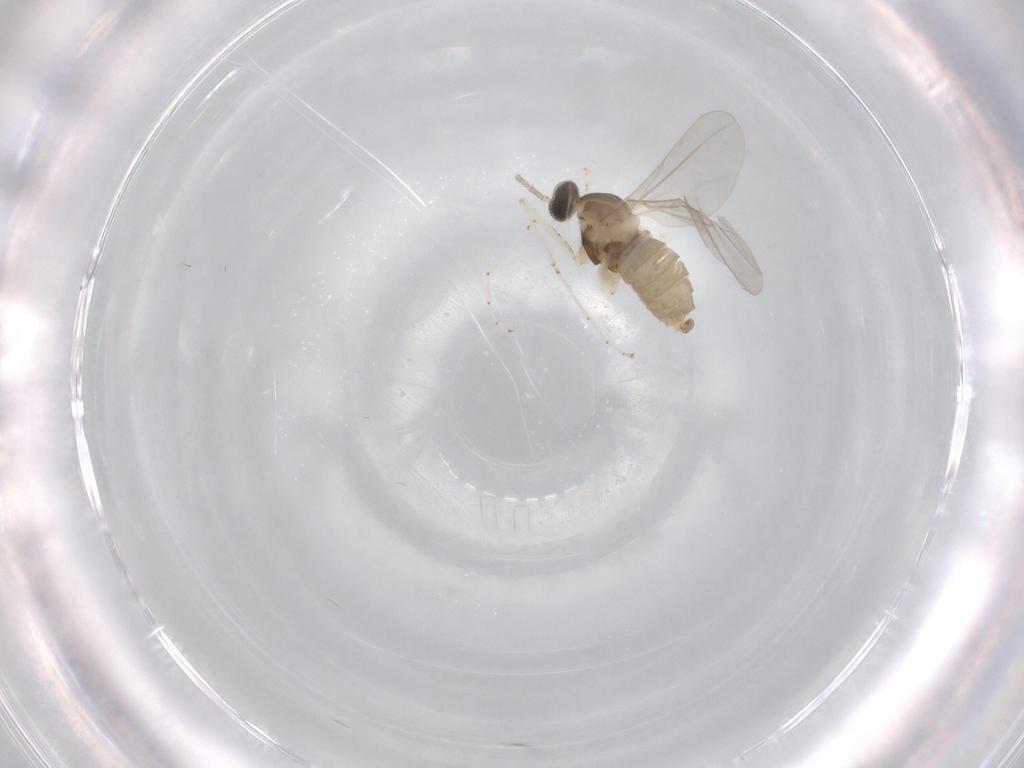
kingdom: Animalia
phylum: Arthropoda
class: Insecta
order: Diptera
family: Cecidomyiidae
